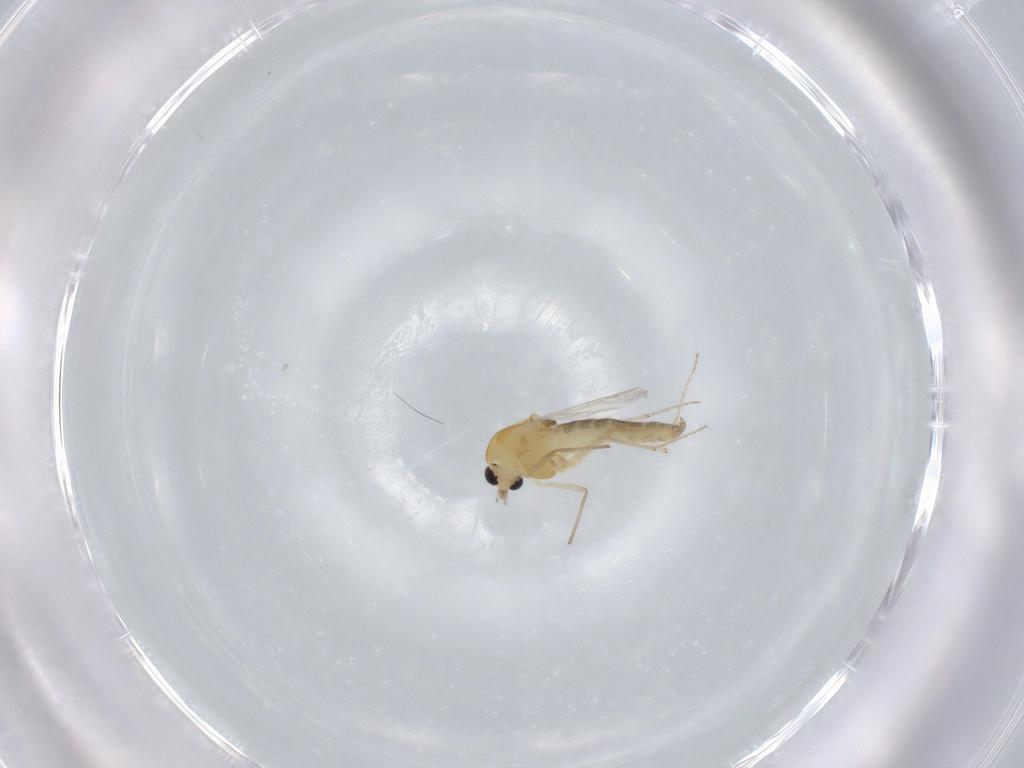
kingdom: Animalia
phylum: Arthropoda
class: Insecta
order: Diptera
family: Chironomidae
